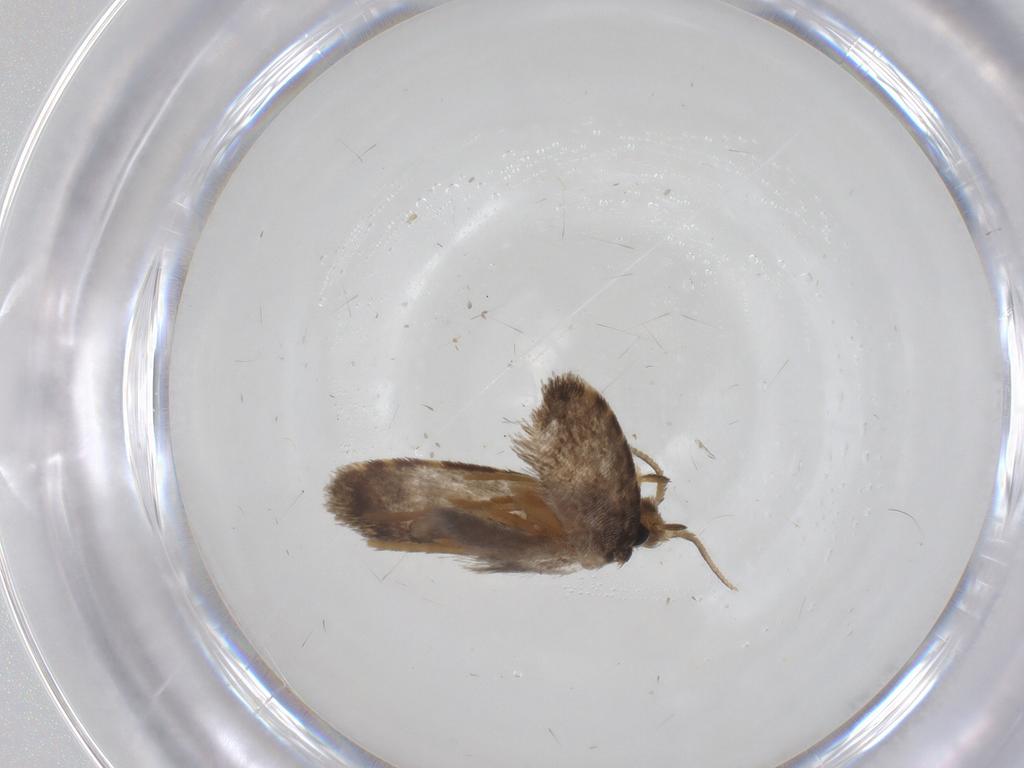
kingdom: Animalia
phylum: Arthropoda
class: Insecta
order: Lepidoptera
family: Psychidae
